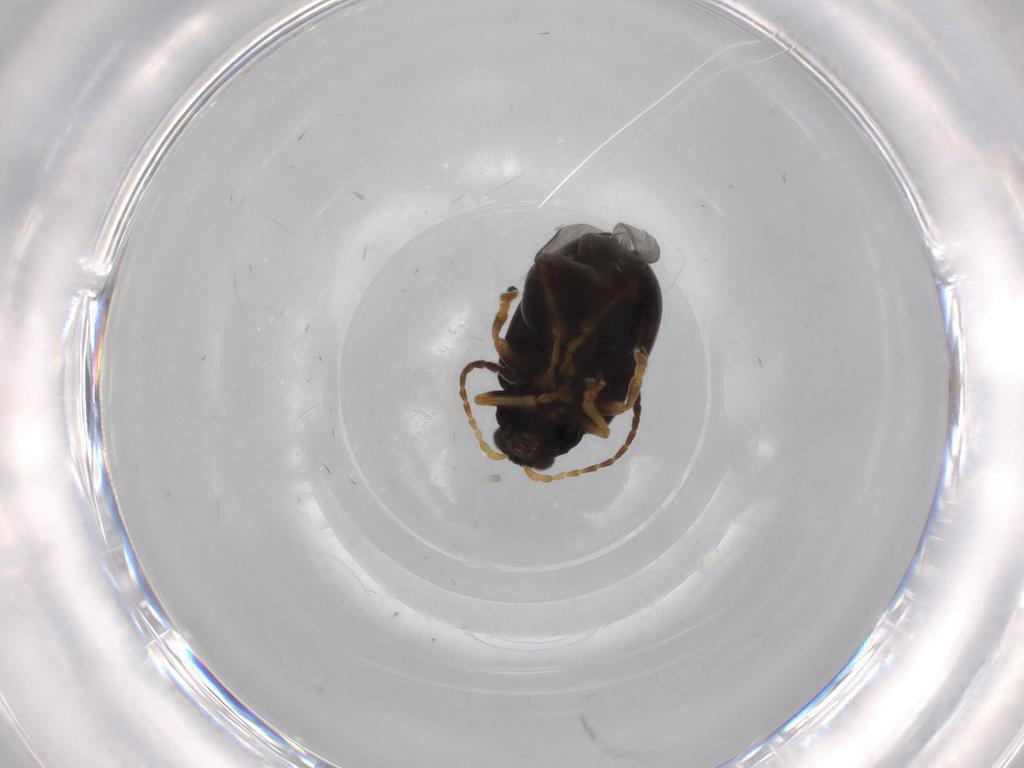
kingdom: Animalia
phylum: Arthropoda
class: Insecta
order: Coleoptera
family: Chrysomelidae
